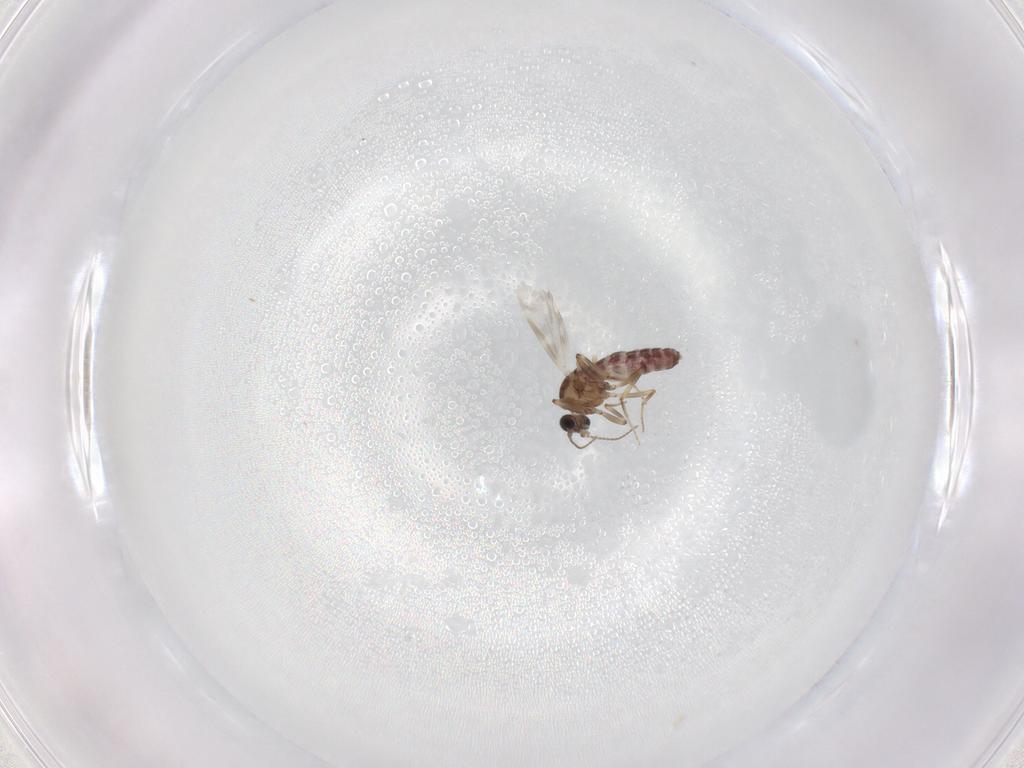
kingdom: Animalia
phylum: Arthropoda
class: Insecta
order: Diptera
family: Ceratopogonidae
